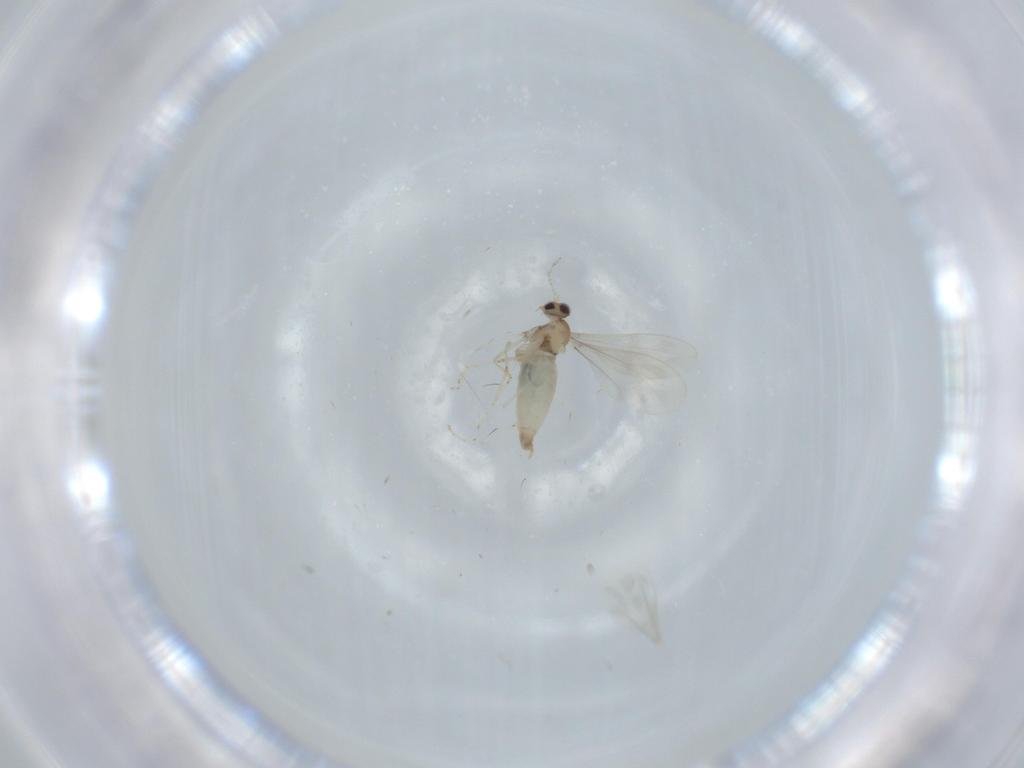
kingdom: Animalia
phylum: Arthropoda
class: Insecta
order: Diptera
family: Cecidomyiidae
